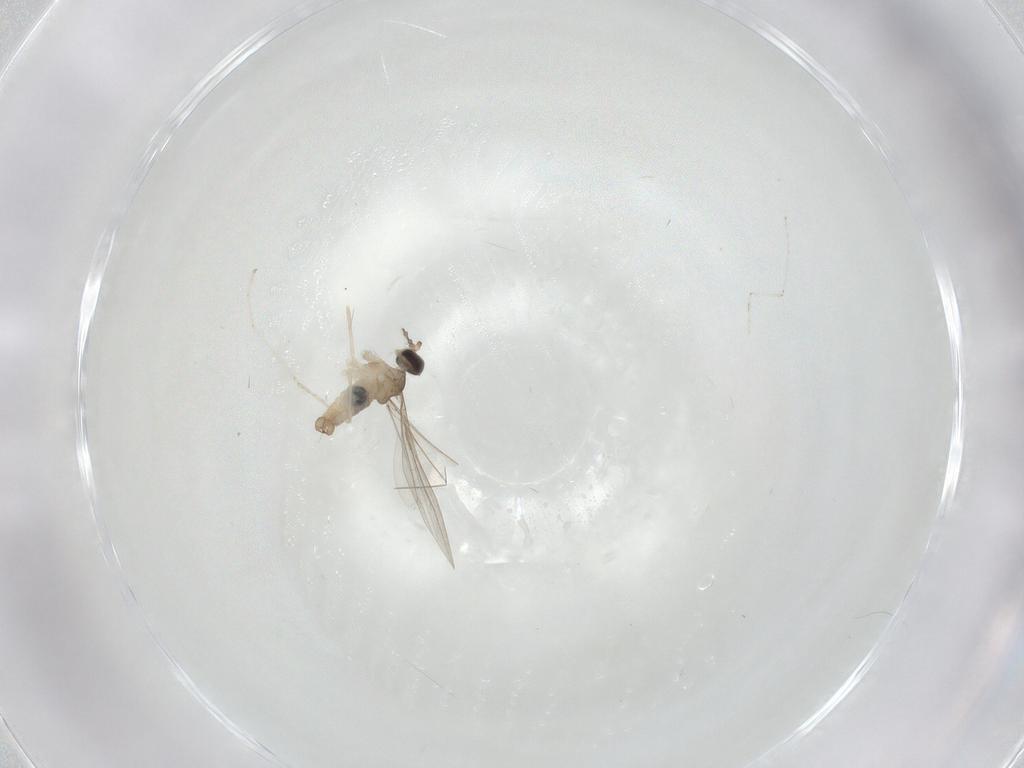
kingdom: Animalia
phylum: Arthropoda
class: Insecta
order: Diptera
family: Cecidomyiidae
